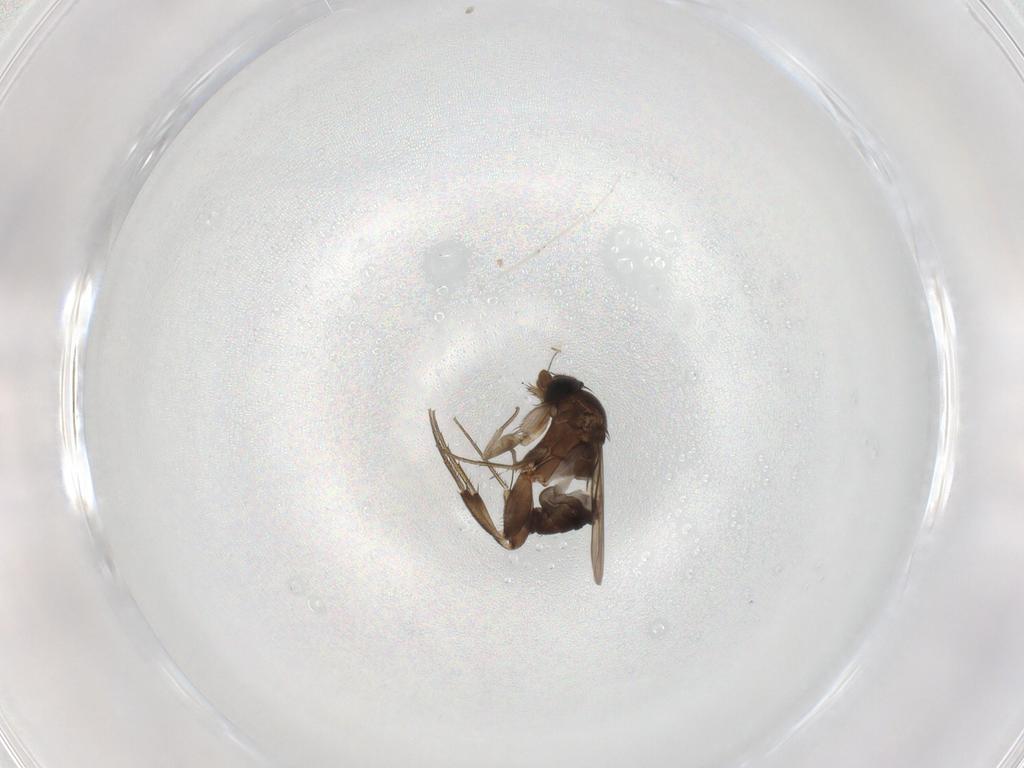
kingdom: Animalia
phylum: Arthropoda
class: Insecta
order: Diptera
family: Phoridae
